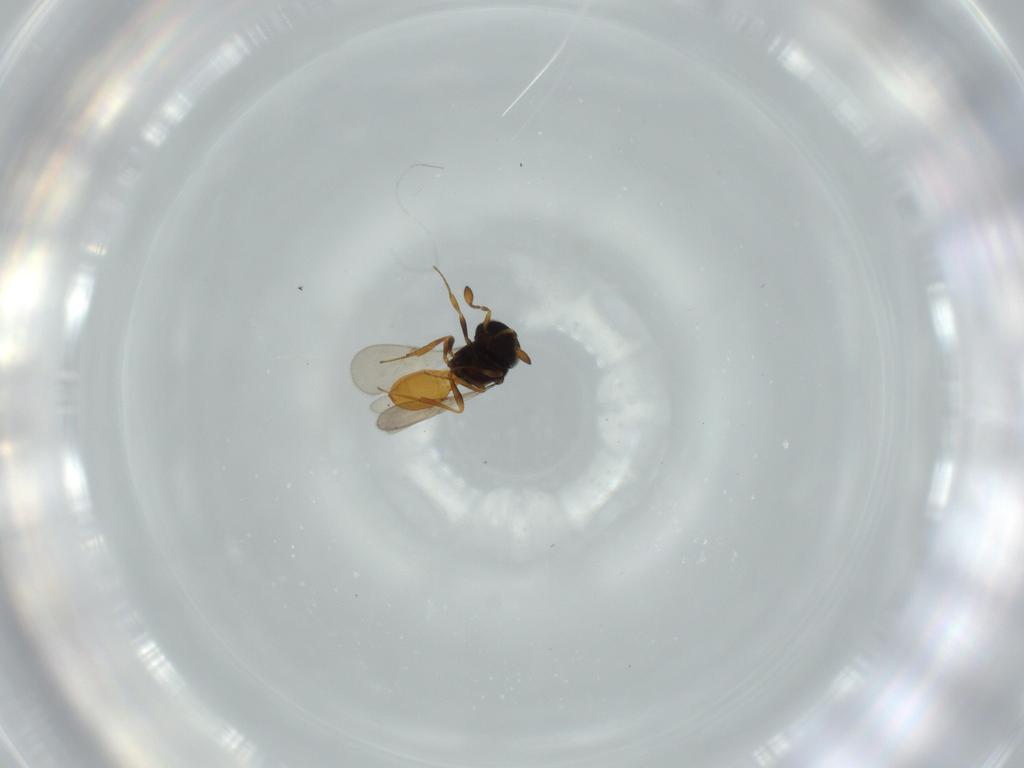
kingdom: Animalia
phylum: Arthropoda
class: Insecta
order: Hymenoptera
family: Scelionidae
